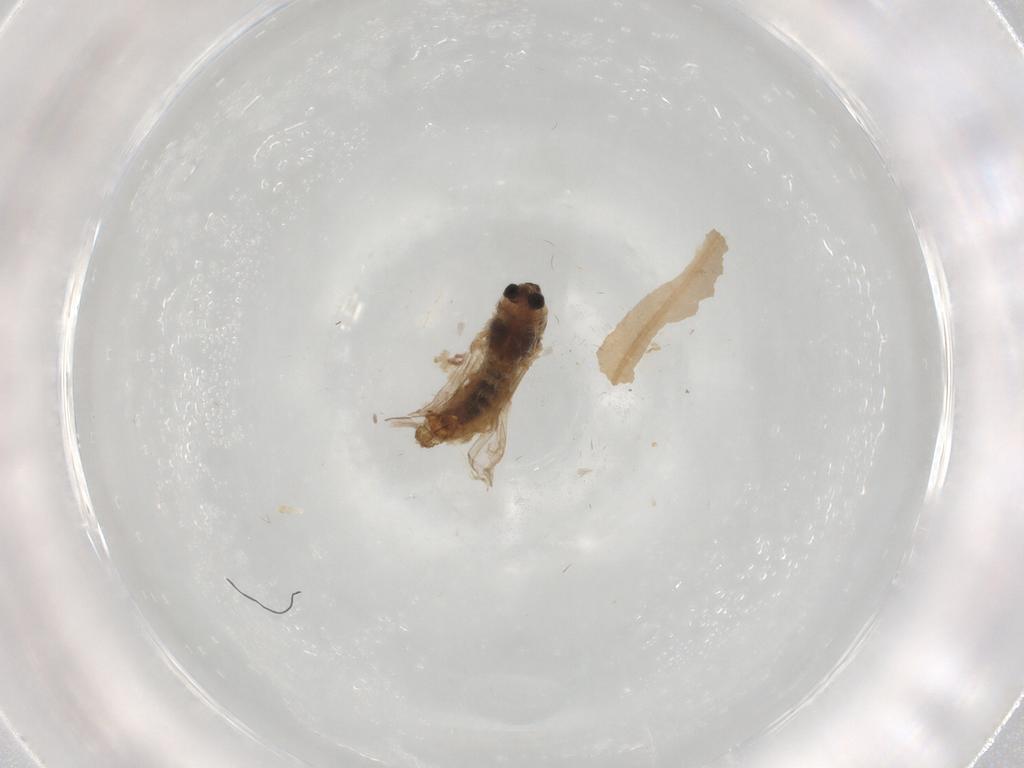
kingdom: Animalia
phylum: Arthropoda
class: Insecta
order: Diptera
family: Chironomidae
